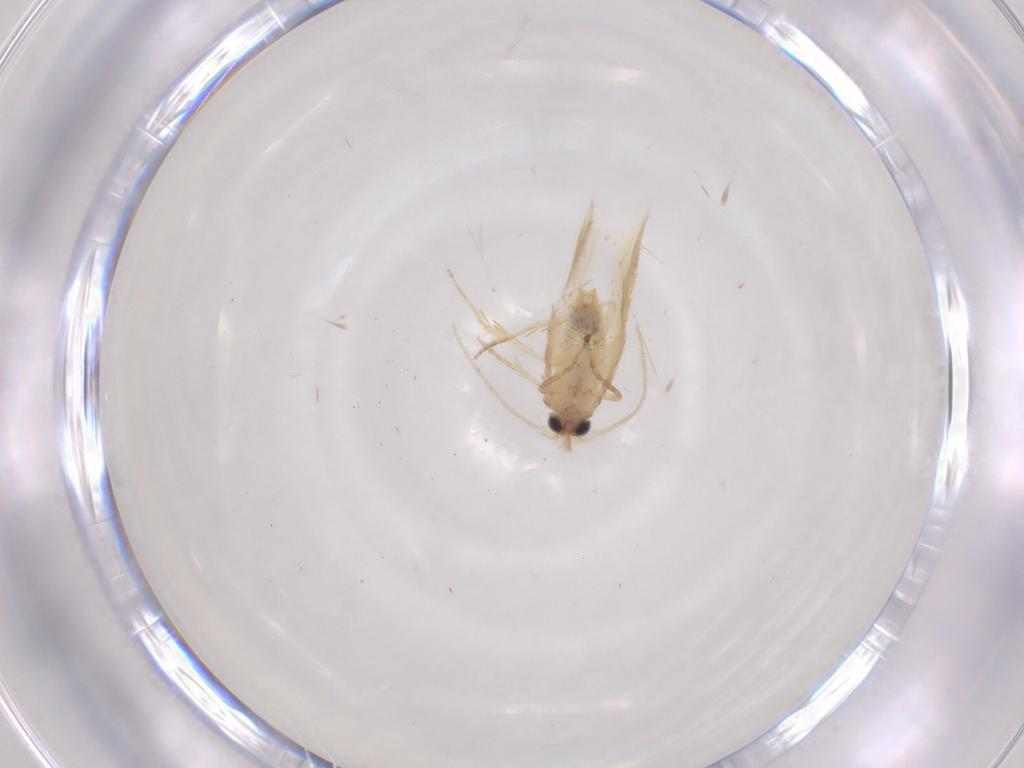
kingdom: Animalia
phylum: Arthropoda
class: Insecta
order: Lepidoptera
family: Nepticulidae
